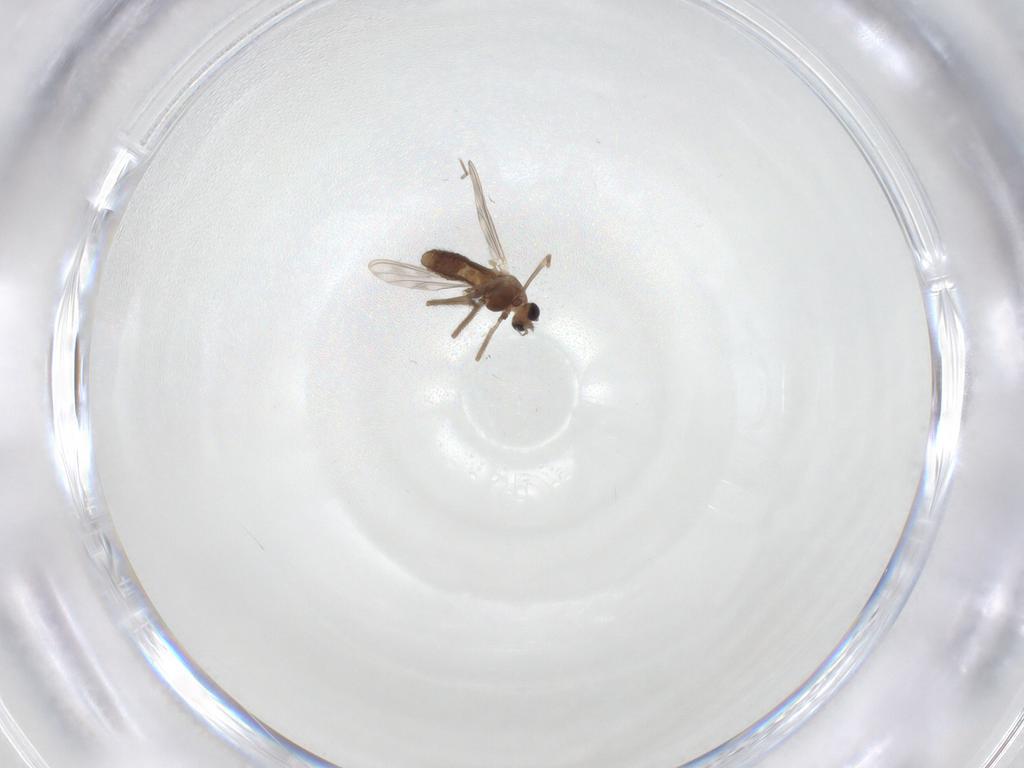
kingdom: Animalia
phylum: Arthropoda
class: Insecta
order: Diptera
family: Chironomidae
